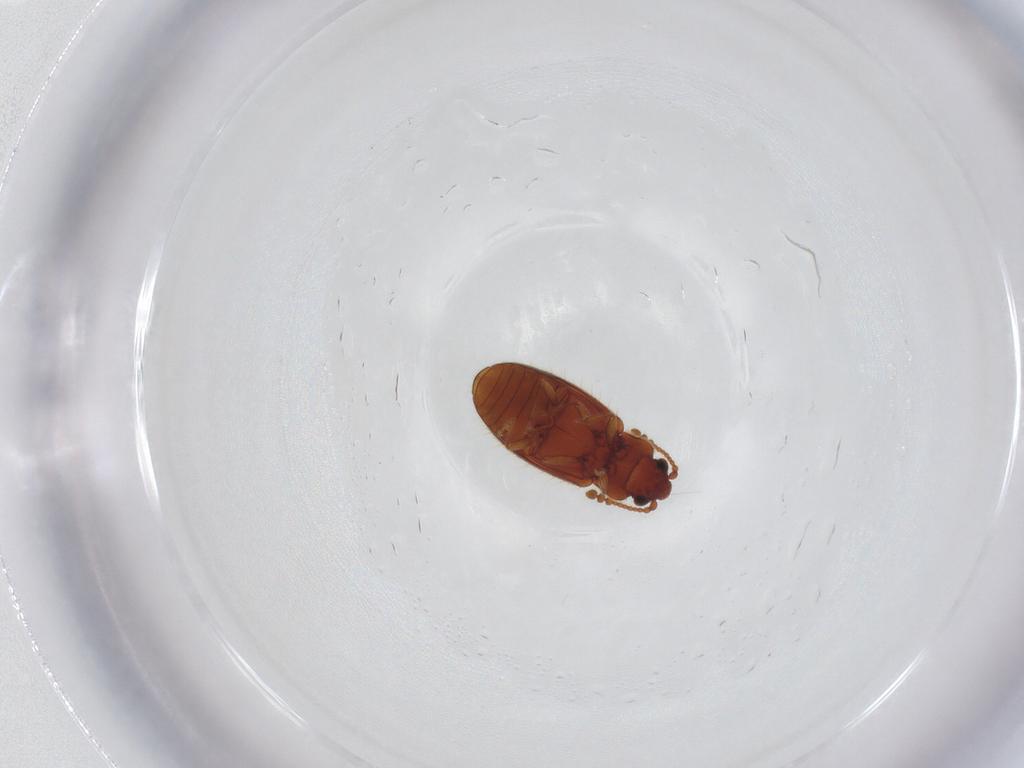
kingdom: Animalia
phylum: Arthropoda
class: Insecta
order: Coleoptera
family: Cryptophagidae
